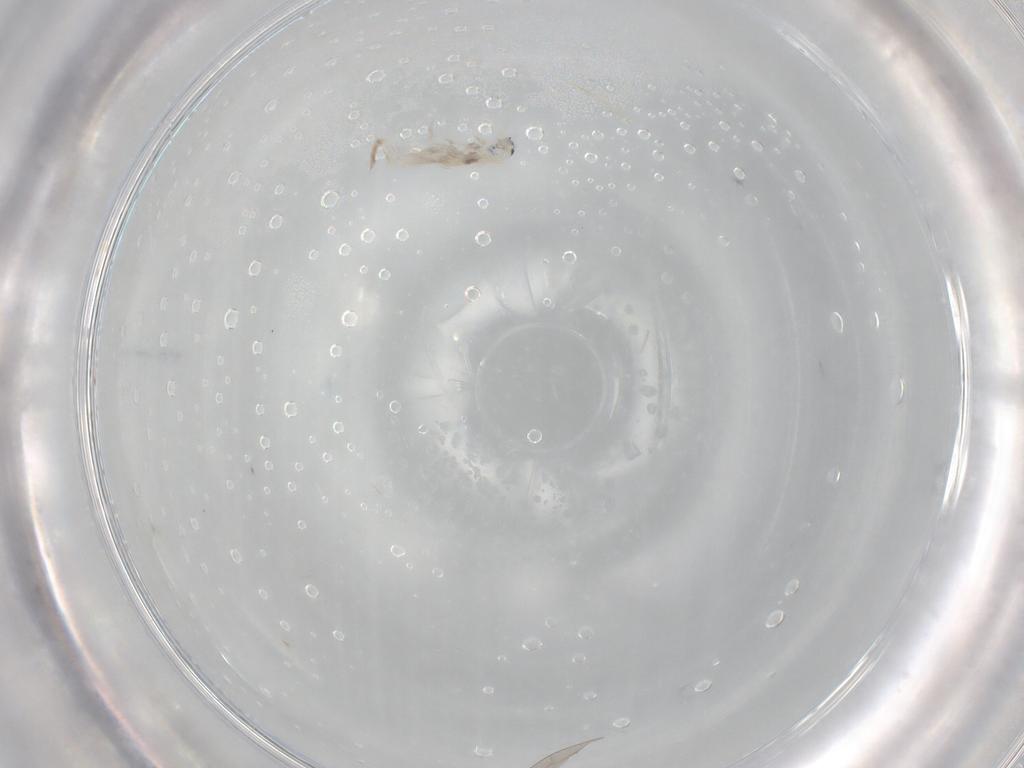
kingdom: Animalia
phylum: Arthropoda
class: Collembola
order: Entomobryomorpha
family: Entomobryidae
